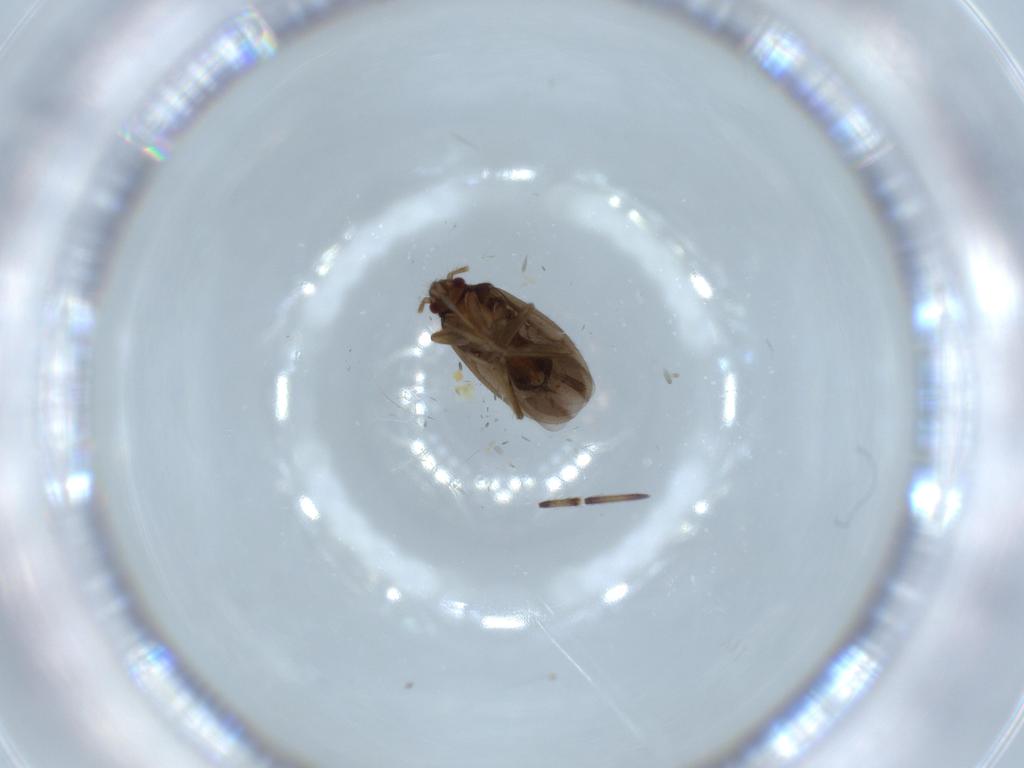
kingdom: Animalia
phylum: Arthropoda
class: Insecta
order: Hemiptera
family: Ceratocombidae
